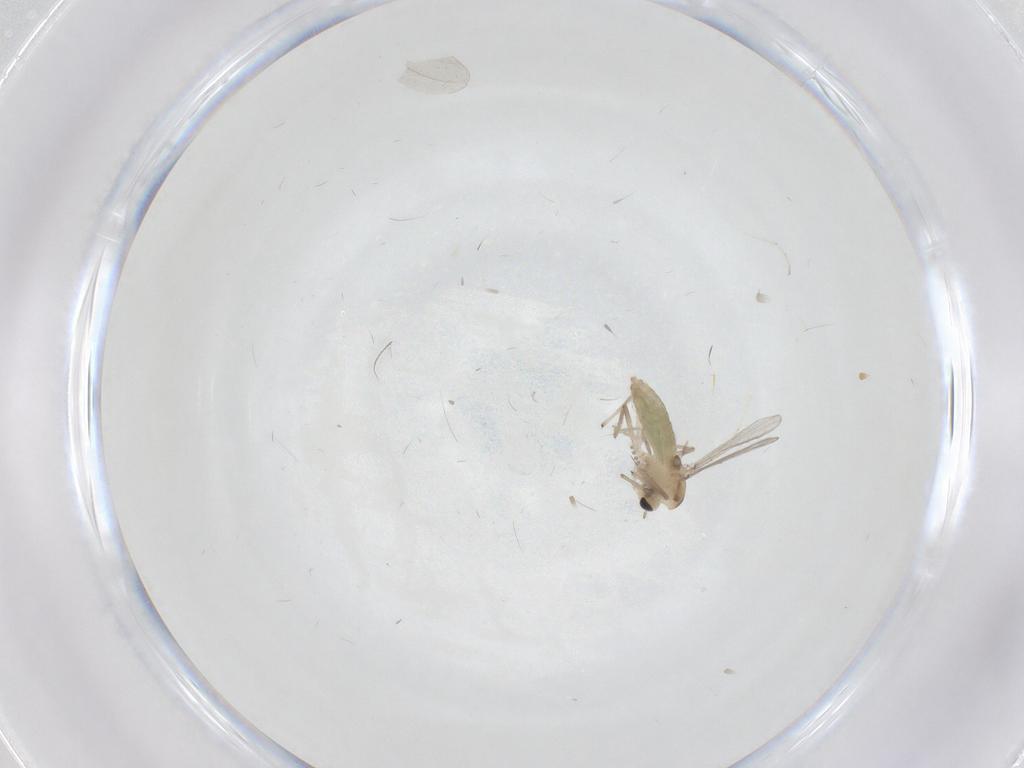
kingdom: Animalia
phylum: Arthropoda
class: Insecta
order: Diptera
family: Chironomidae
